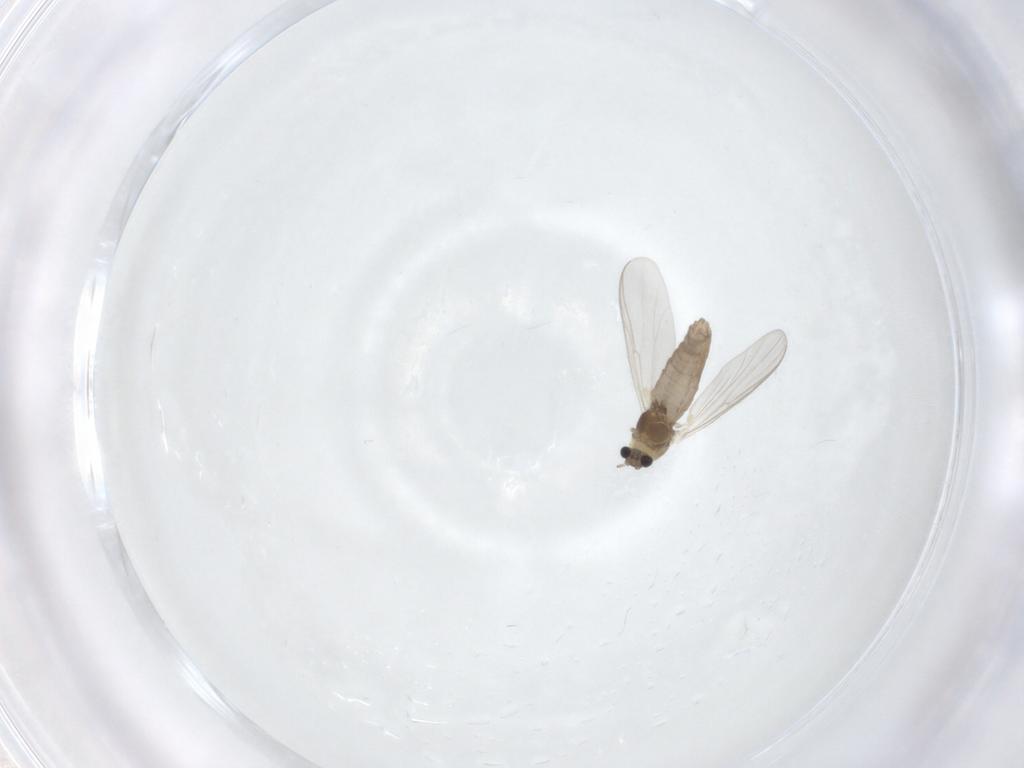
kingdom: Animalia
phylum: Arthropoda
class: Insecta
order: Diptera
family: Chironomidae
